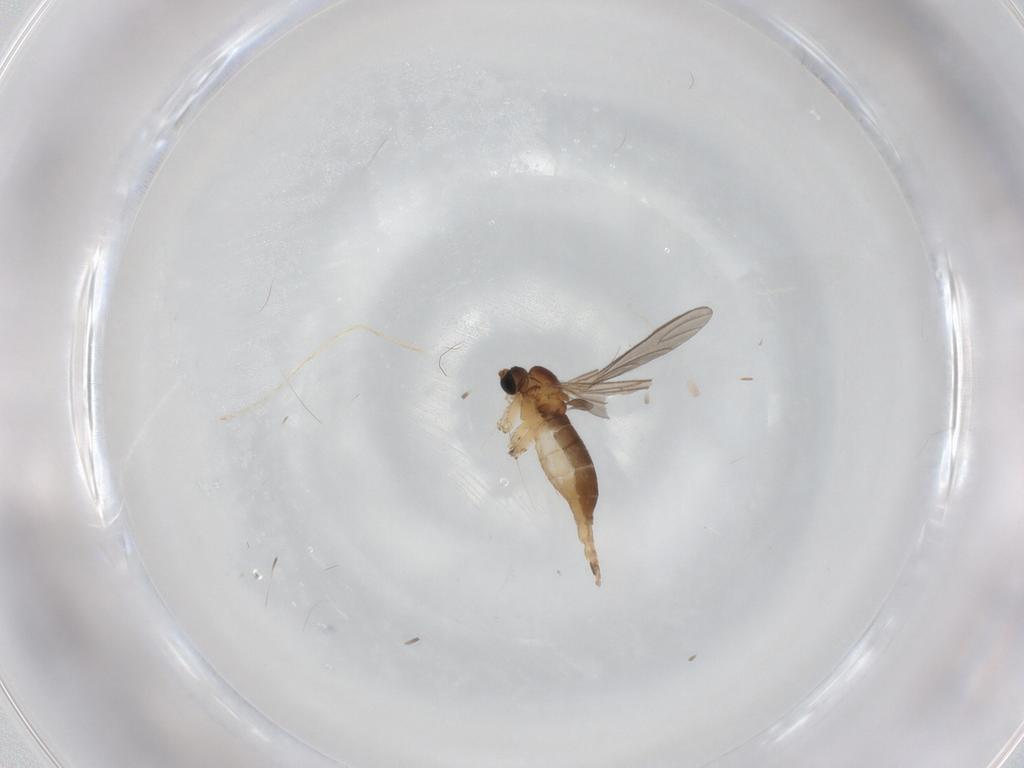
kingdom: Animalia
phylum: Arthropoda
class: Insecta
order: Diptera
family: Sciaridae
